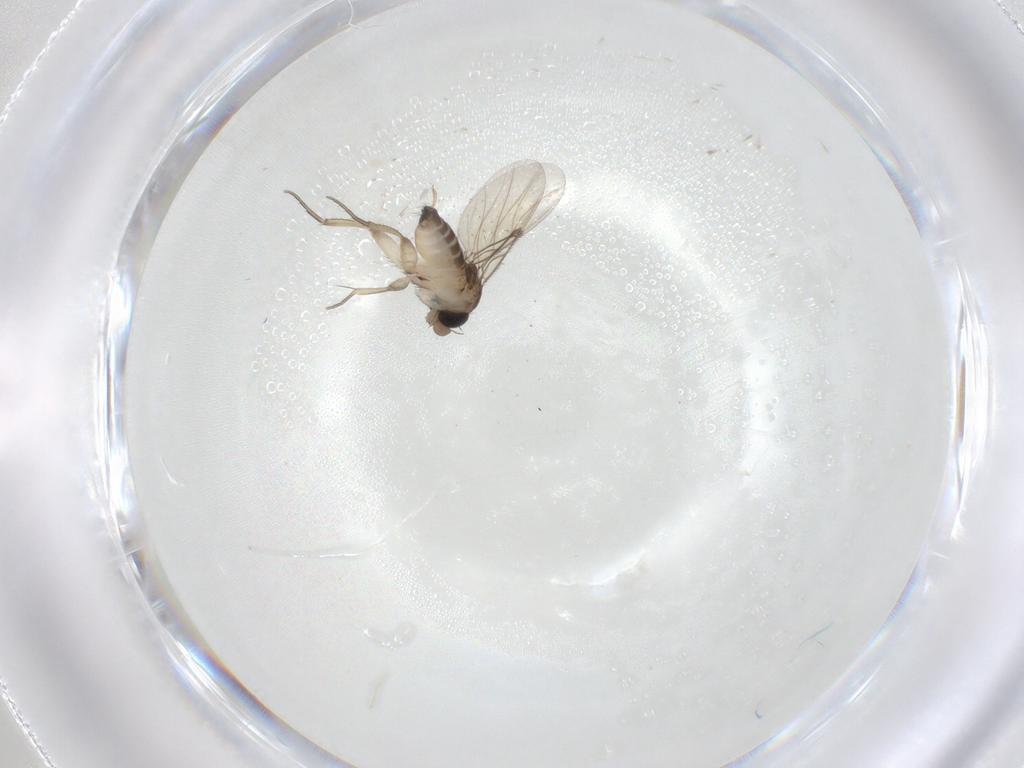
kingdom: Animalia
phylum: Arthropoda
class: Insecta
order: Diptera
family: Phoridae
